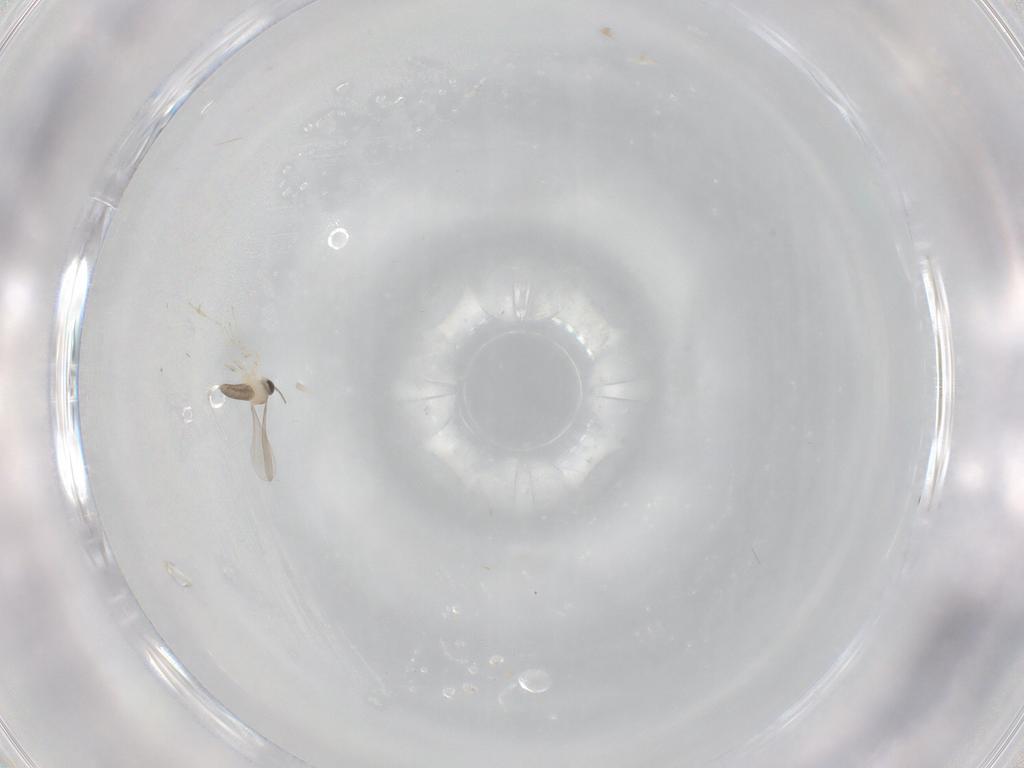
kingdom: Animalia
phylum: Arthropoda
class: Insecta
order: Diptera
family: Cecidomyiidae
